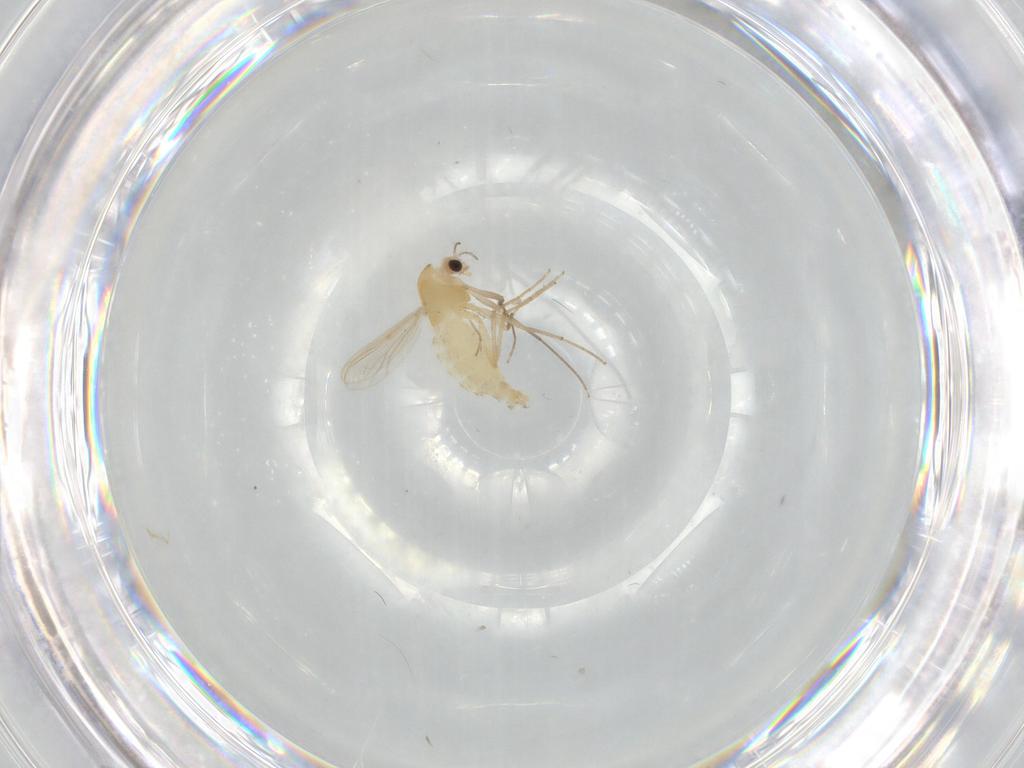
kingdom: Animalia
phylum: Arthropoda
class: Insecta
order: Diptera
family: Chironomidae
